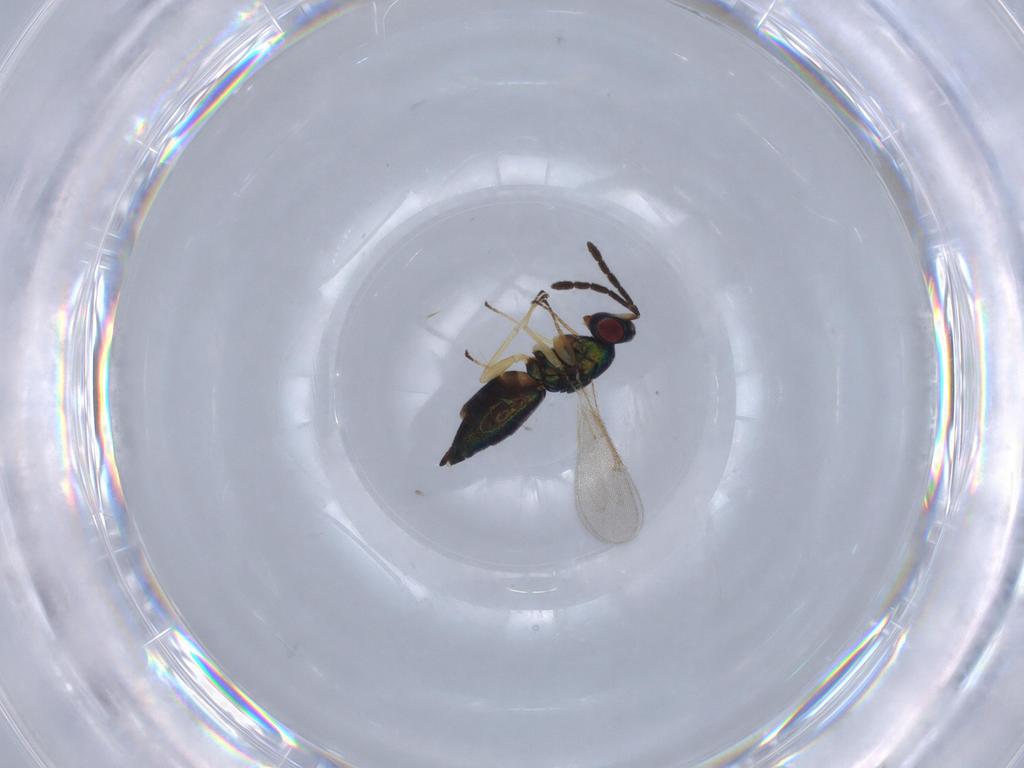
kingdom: Animalia
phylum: Arthropoda
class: Insecta
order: Hymenoptera
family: Eulophidae
